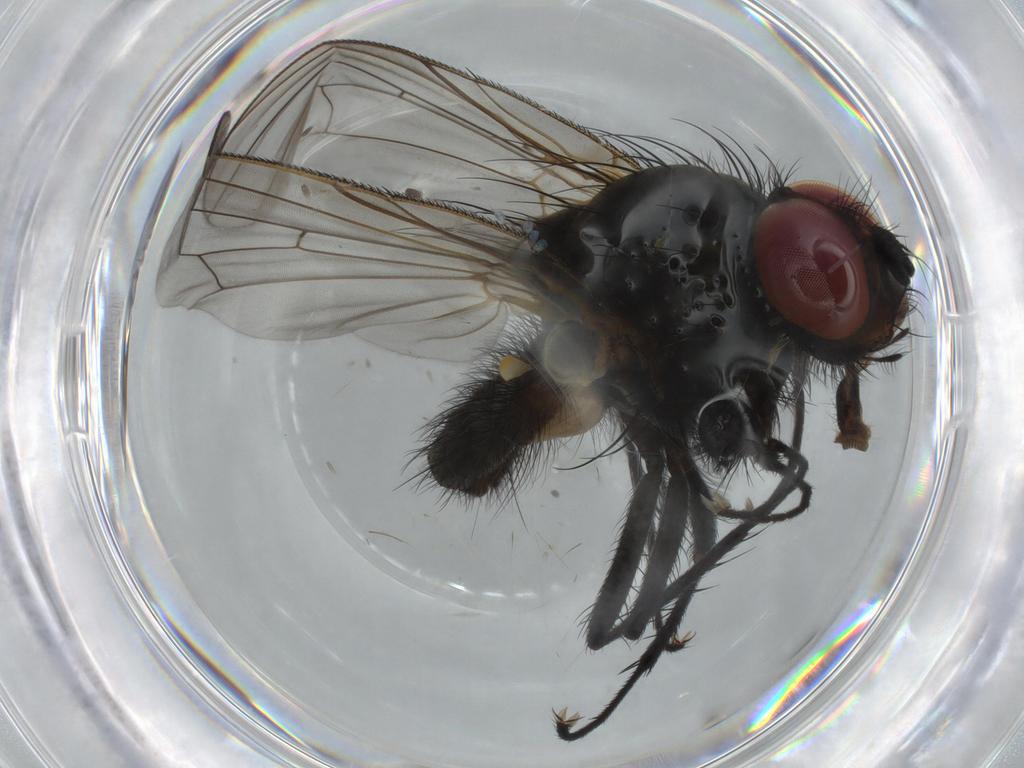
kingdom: Animalia
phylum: Arthropoda
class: Insecta
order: Diptera
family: Anthomyiidae
